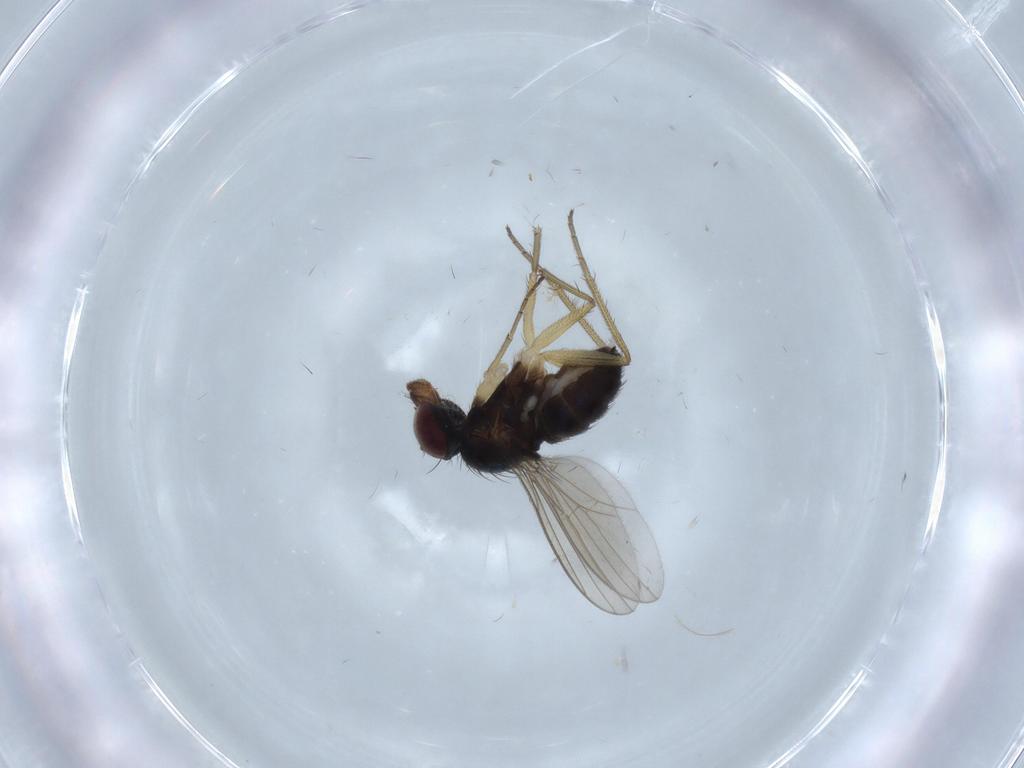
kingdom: Animalia
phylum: Arthropoda
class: Insecta
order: Diptera
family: Dolichopodidae
